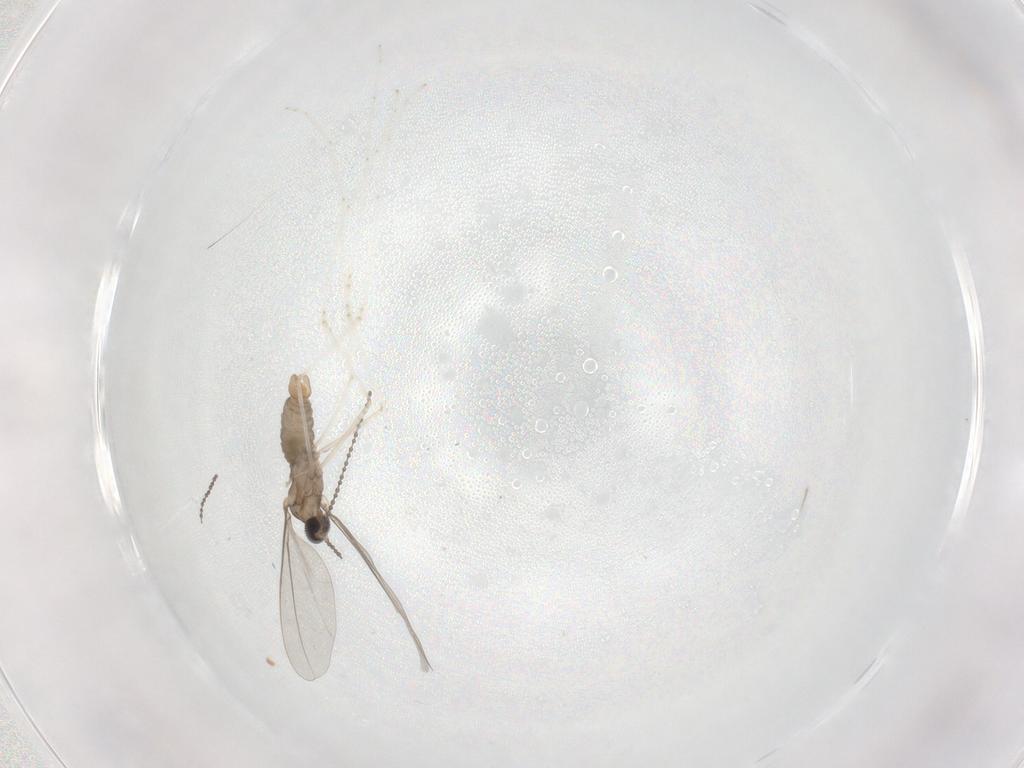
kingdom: Animalia
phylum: Arthropoda
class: Insecta
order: Diptera
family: Cecidomyiidae
